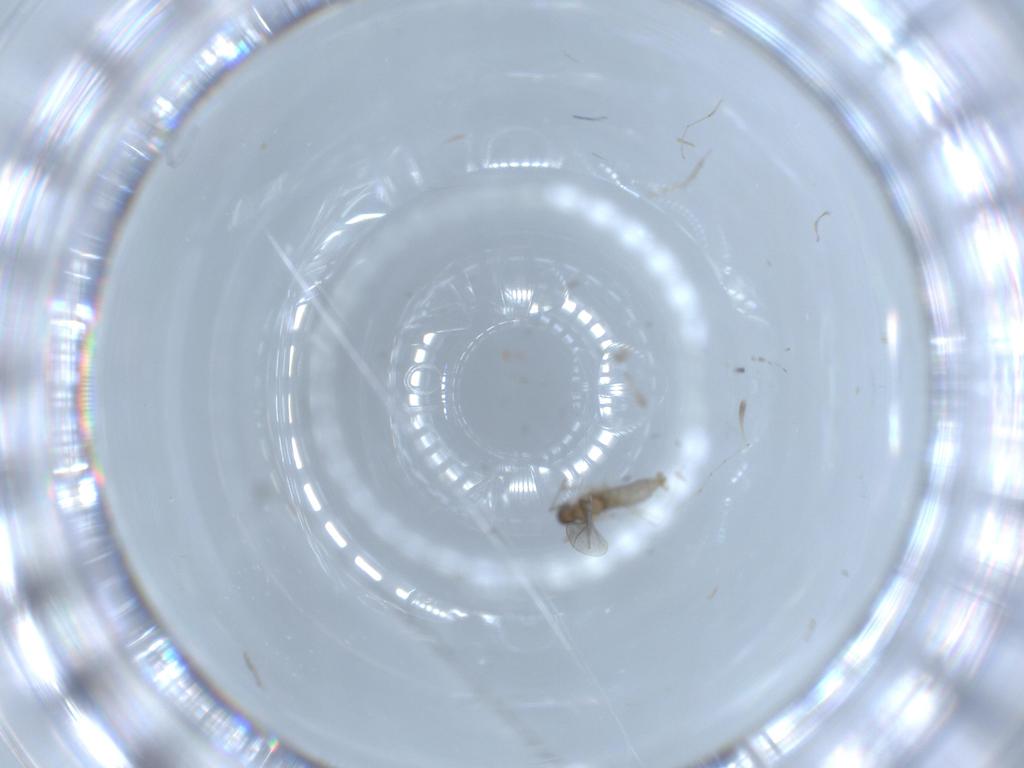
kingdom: Animalia
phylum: Arthropoda
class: Insecta
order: Diptera
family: Cecidomyiidae
